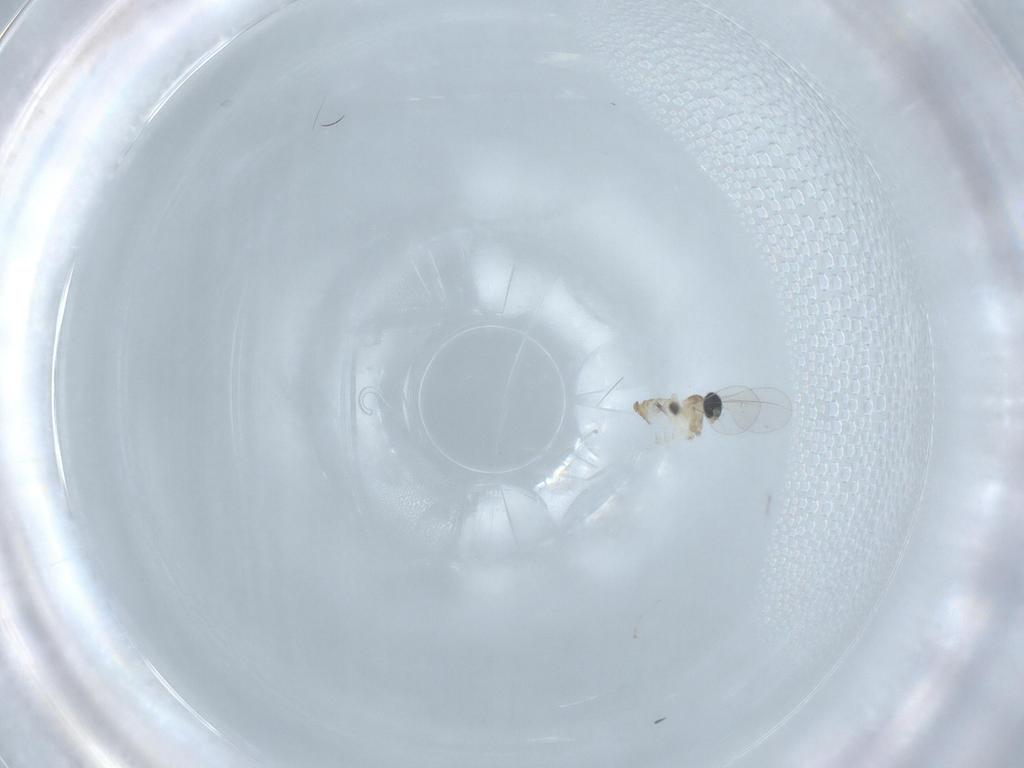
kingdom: Animalia
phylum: Arthropoda
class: Insecta
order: Diptera
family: Cecidomyiidae
